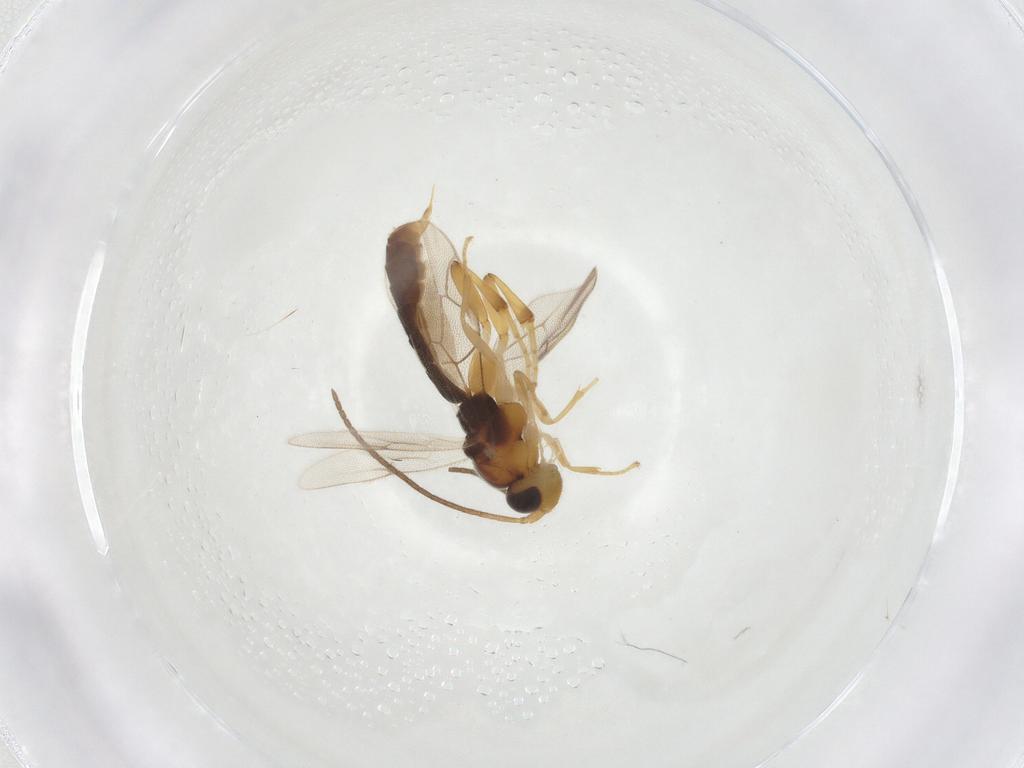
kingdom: Animalia
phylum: Arthropoda
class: Insecta
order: Hymenoptera
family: Ichneumonidae
